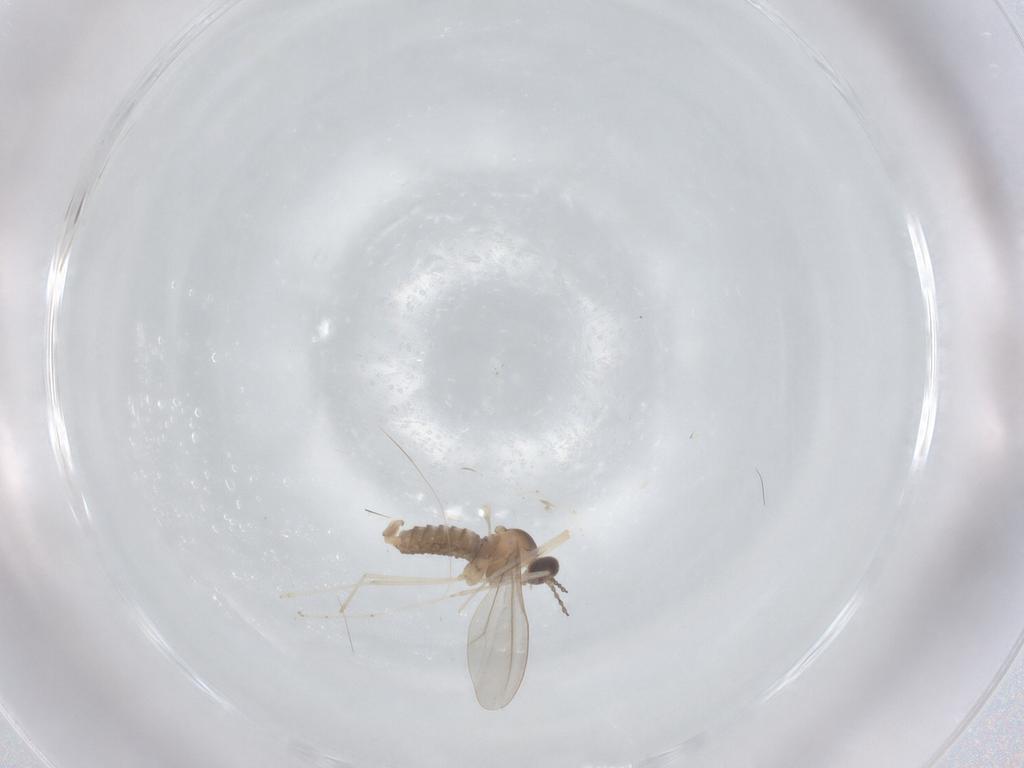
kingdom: Animalia
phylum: Arthropoda
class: Insecta
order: Diptera
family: Cecidomyiidae
